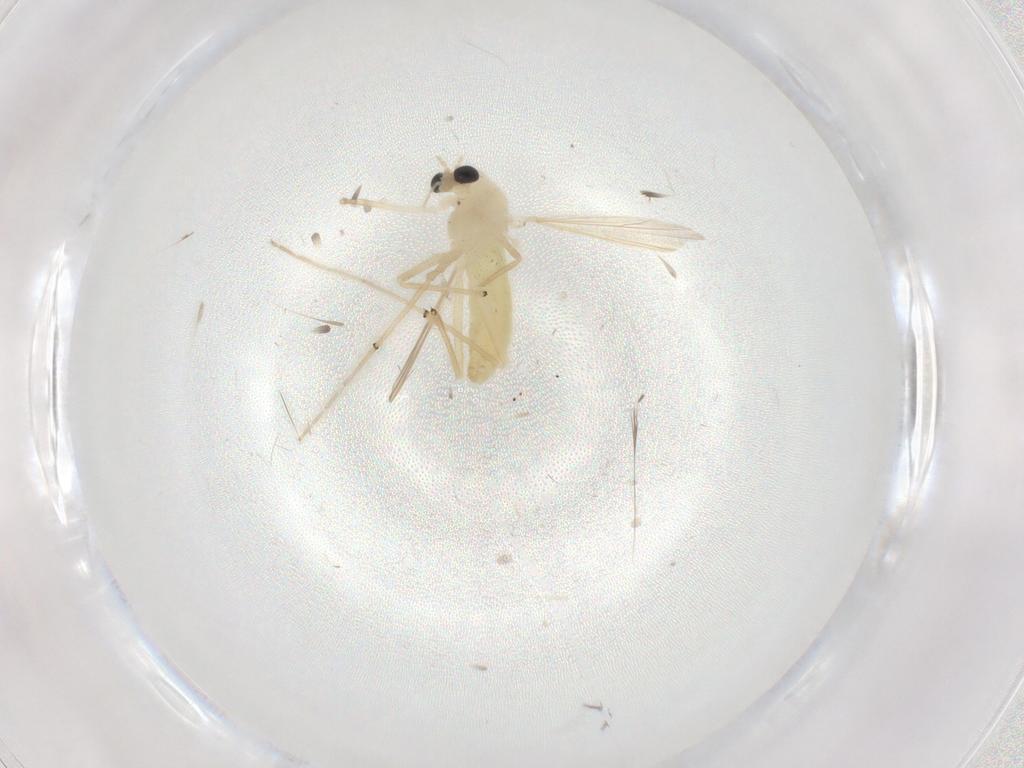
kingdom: Animalia
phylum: Arthropoda
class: Insecta
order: Diptera
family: Chironomidae
